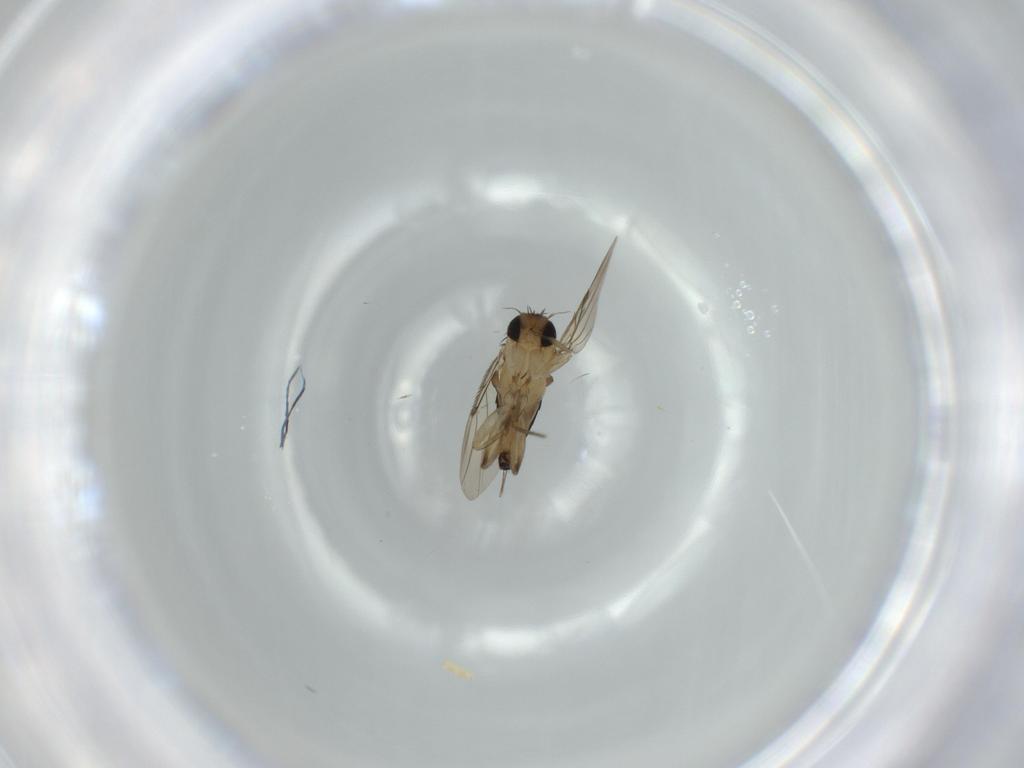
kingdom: Animalia
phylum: Arthropoda
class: Insecta
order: Diptera
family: Phoridae
